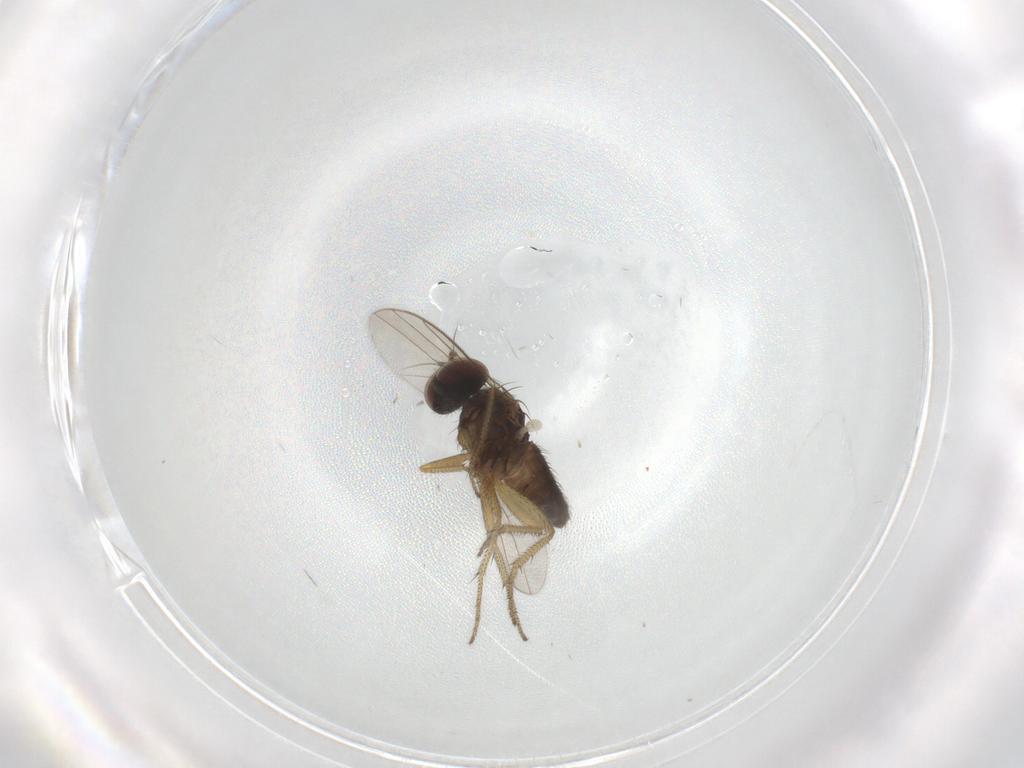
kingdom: Animalia
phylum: Arthropoda
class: Insecta
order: Diptera
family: Dolichopodidae
